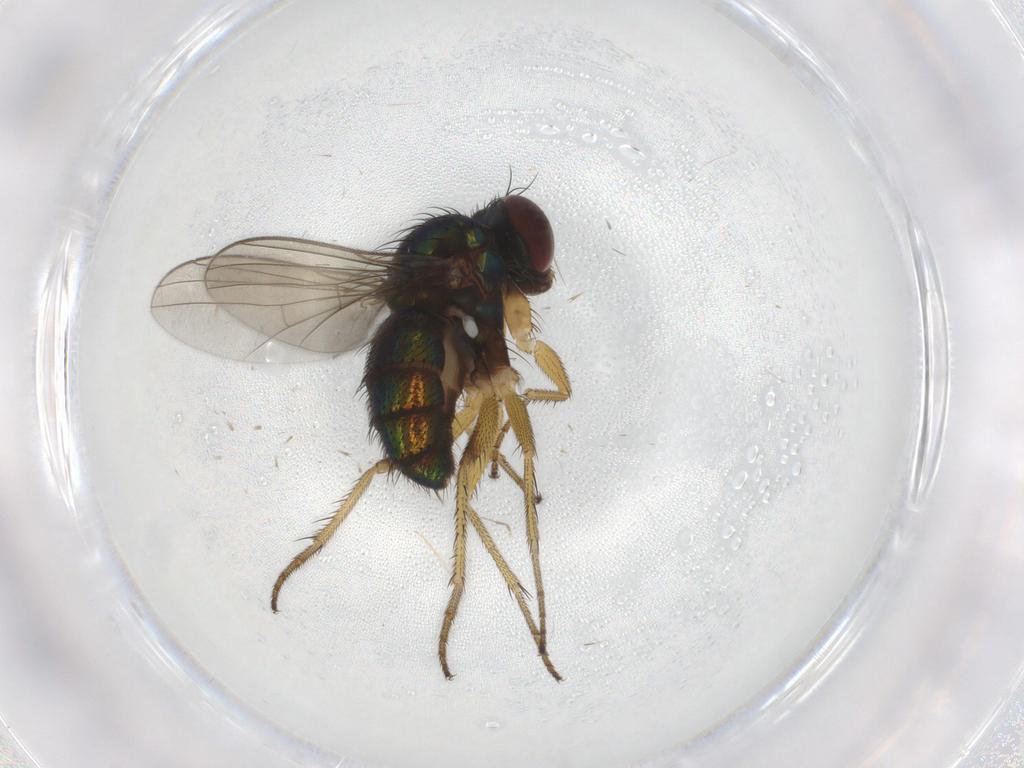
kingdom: Animalia
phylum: Arthropoda
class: Insecta
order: Diptera
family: Dolichopodidae
